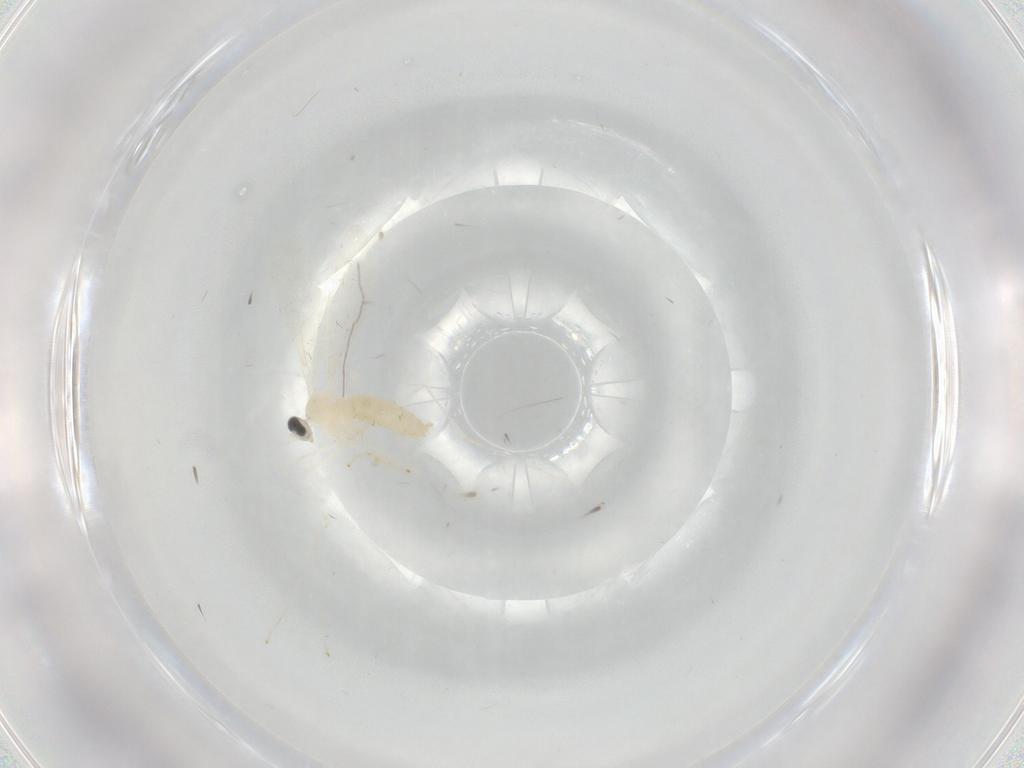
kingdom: Animalia
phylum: Arthropoda
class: Insecta
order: Diptera
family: Cecidomyiidae
